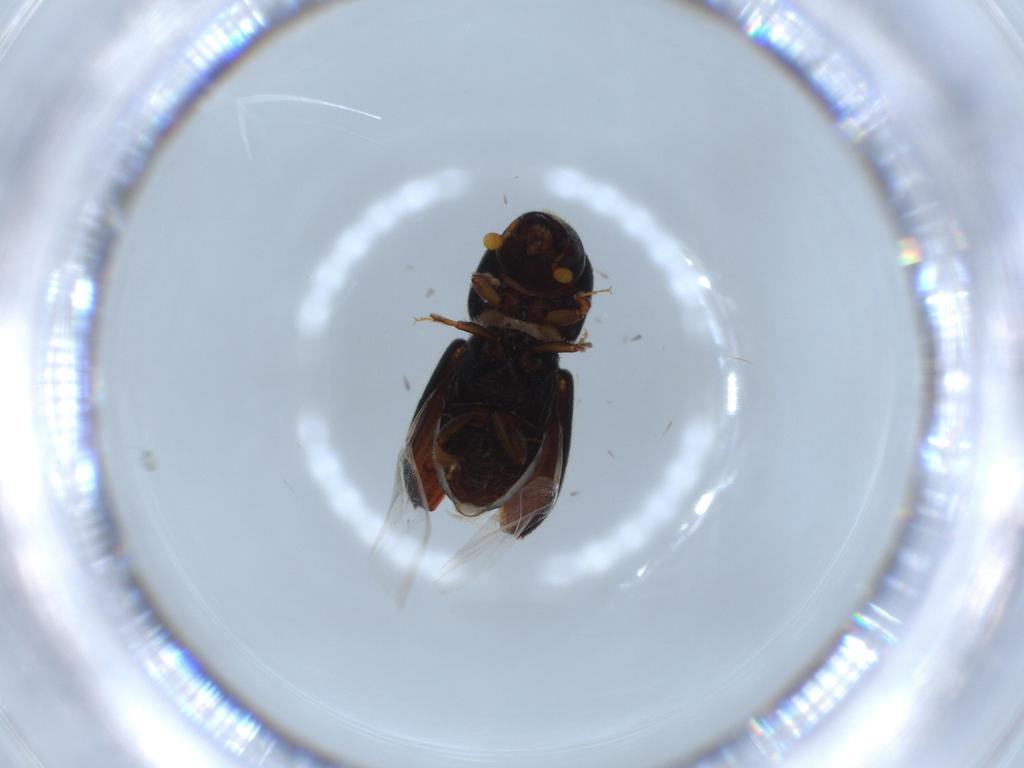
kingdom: Animalia
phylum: Arthropoda
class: Insecta
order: Coleoptera
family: Curculionidae
